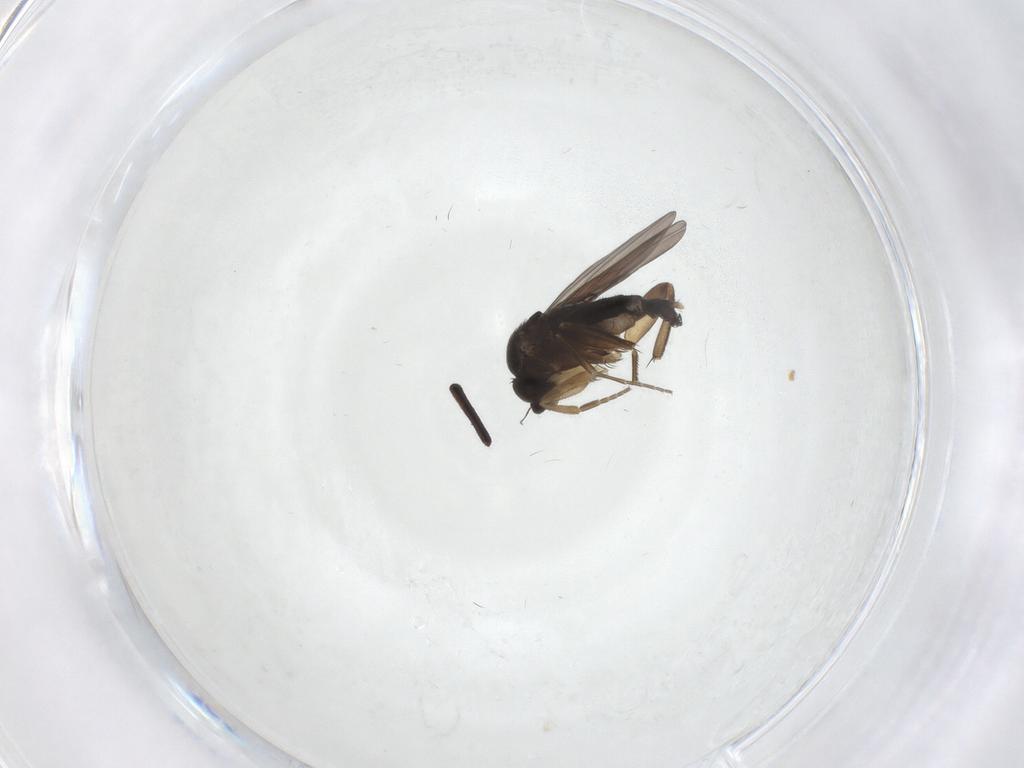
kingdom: Animalia
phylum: Arthropoda
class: Insecta
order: Diptera
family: Phoridae
